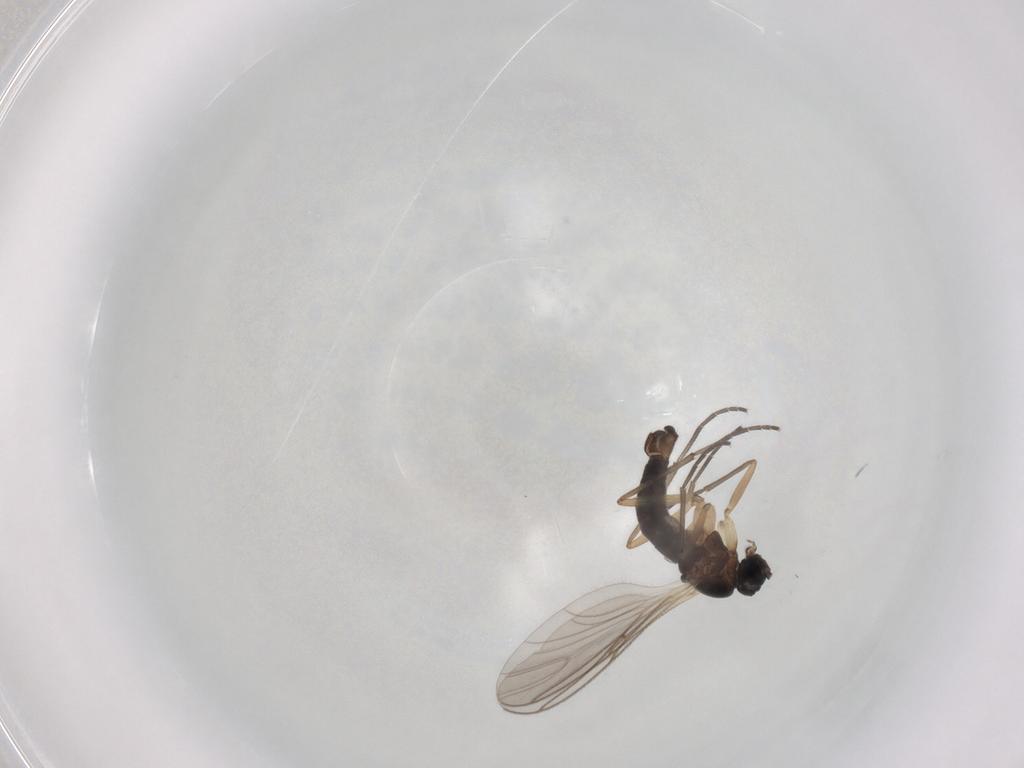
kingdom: Animalia
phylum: Arthropoda
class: Insecta
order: Diptera
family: Sciaridae
